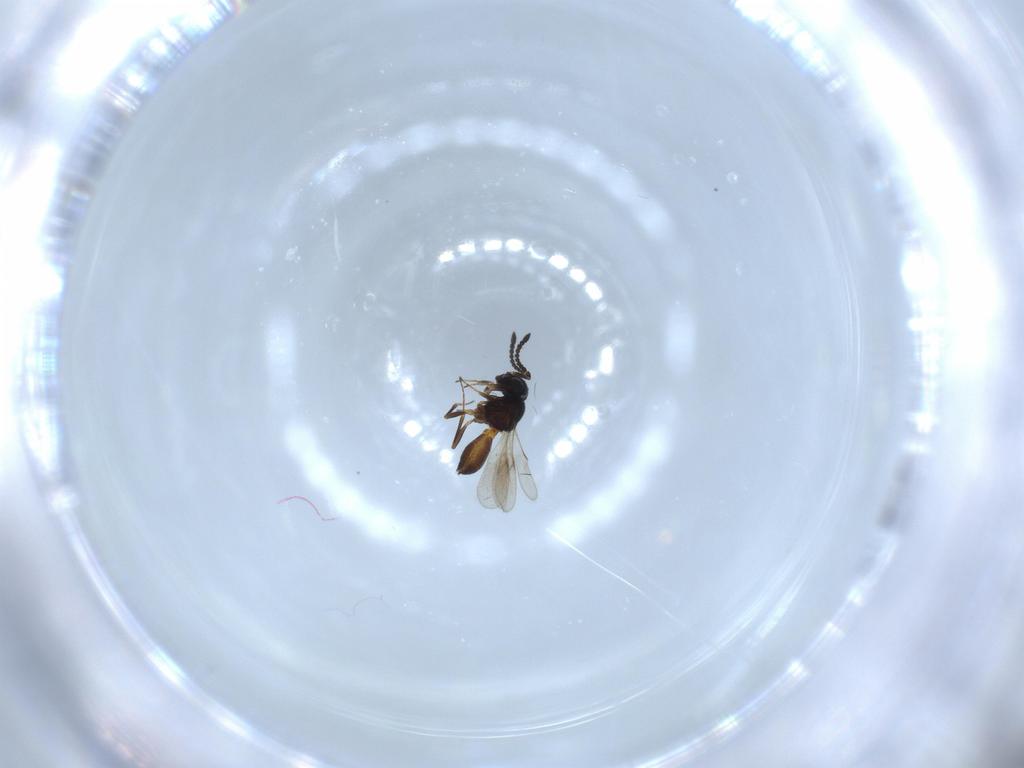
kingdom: Animalia
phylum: Arthropoda
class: Insecta
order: Hymenoptera
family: Scelionidae
